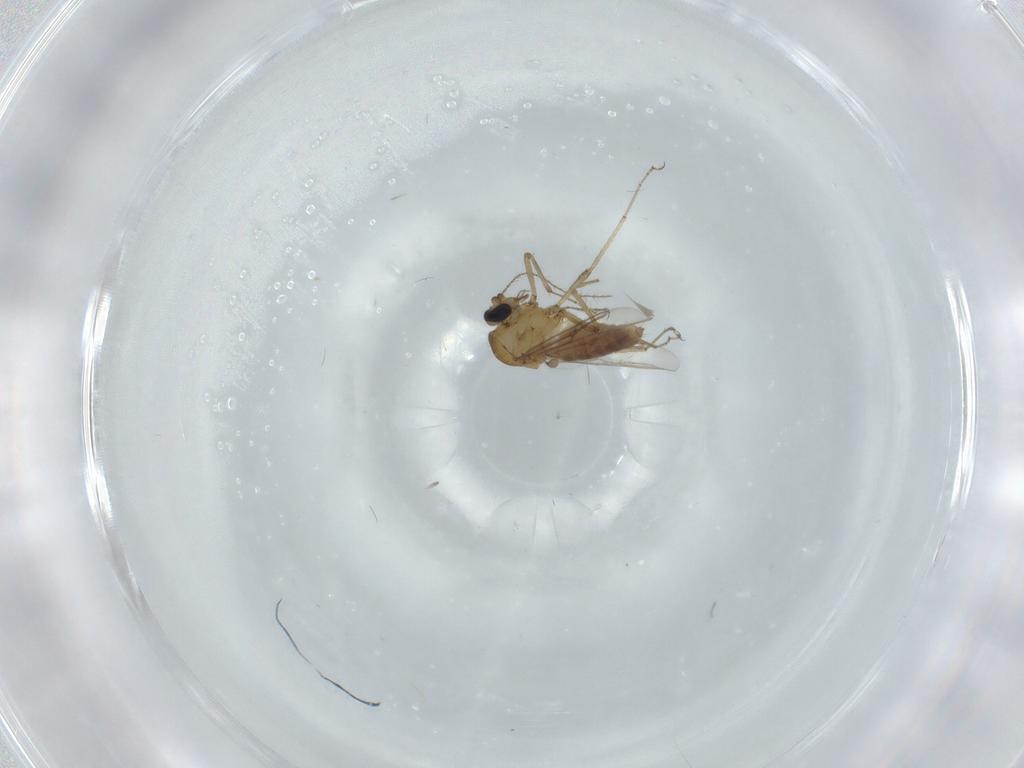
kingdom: Animalia
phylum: Arthropoda
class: Insecta
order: Diptera
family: Ceratopogonidae
